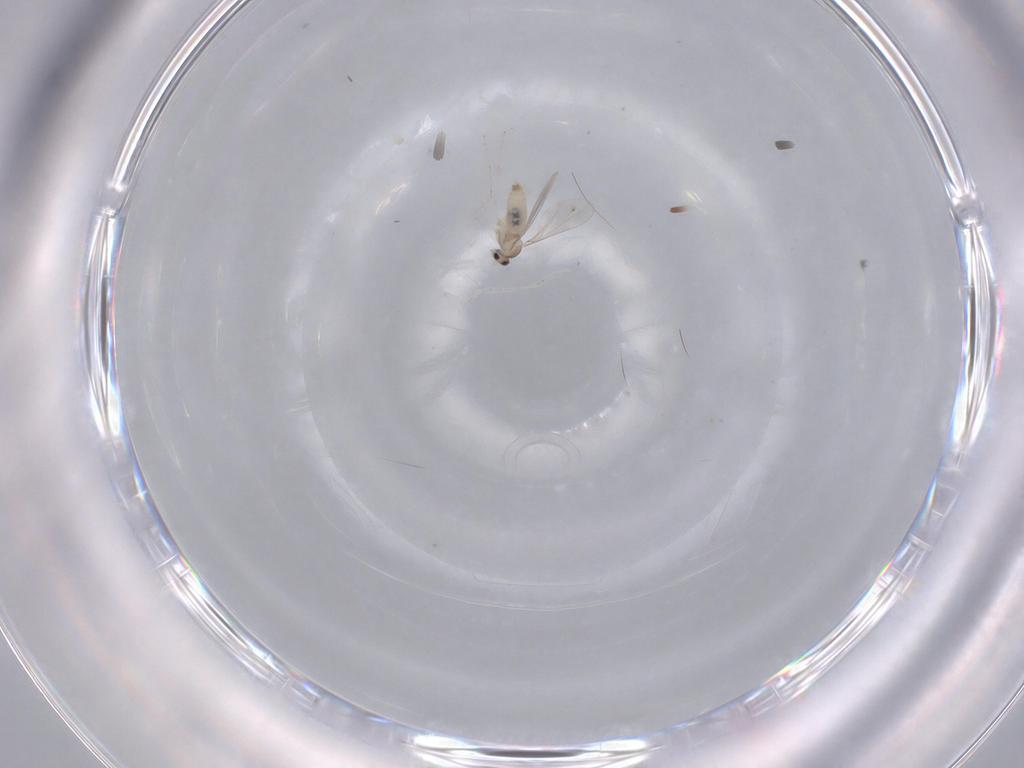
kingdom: Animalia
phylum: Arthropoda
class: Insecta
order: Diptera
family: Cecidomyiidae
